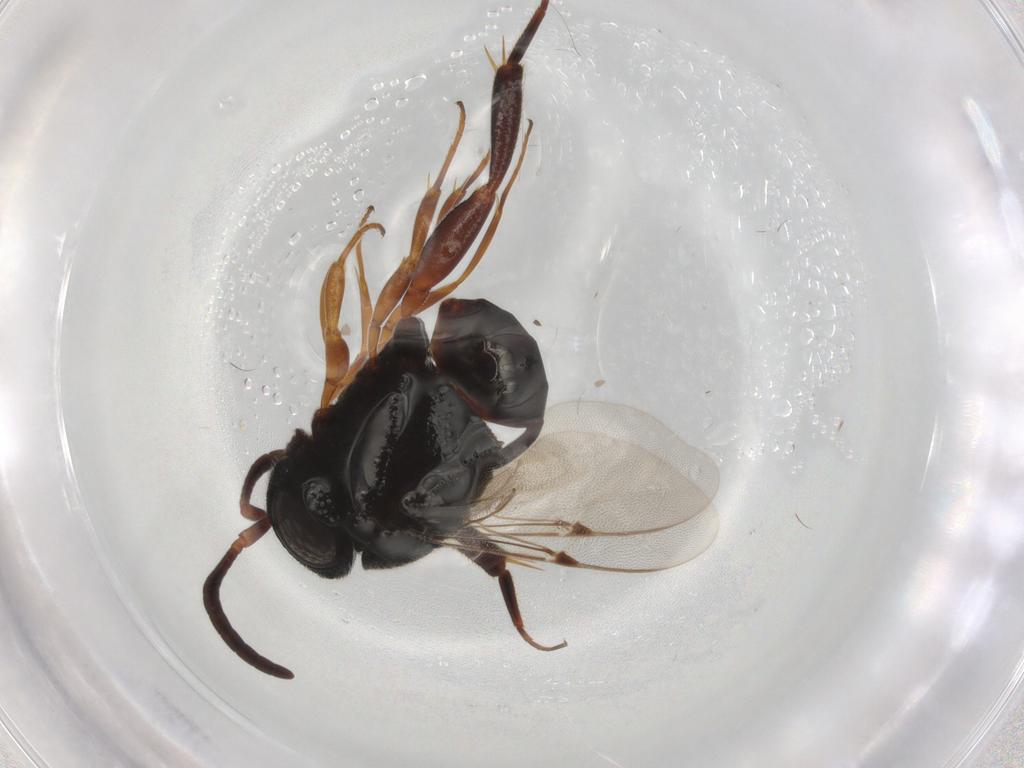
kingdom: Animalia
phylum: Arthropoda
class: Insecta
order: Hymenoptera
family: Evaniidae
